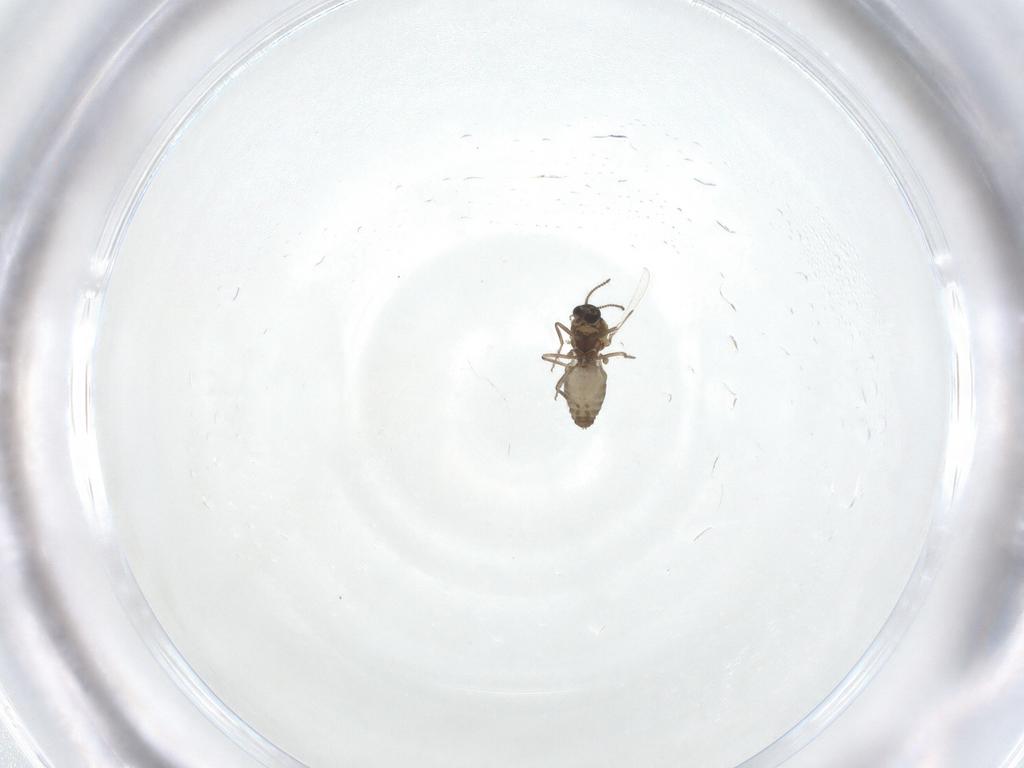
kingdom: Animalia
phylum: Arthropoda
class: Insecta
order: Diptera
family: Ceratopogonidae
